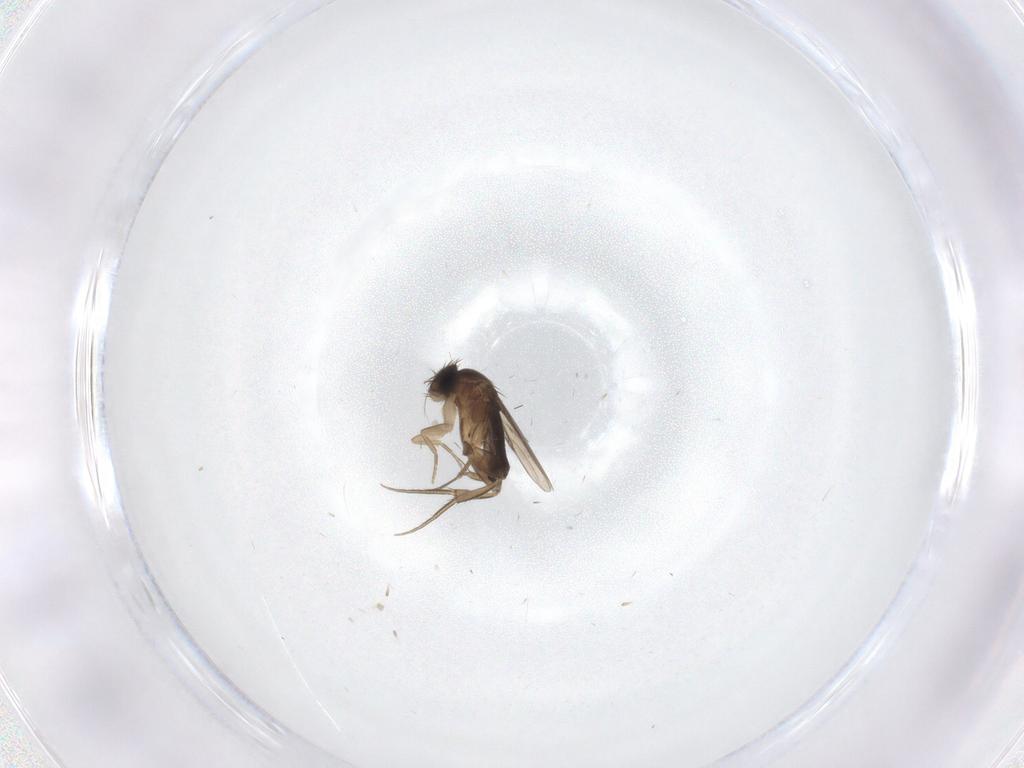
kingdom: Animalia
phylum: Arthropoda
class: Insecta
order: Diptera
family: Phoridae
